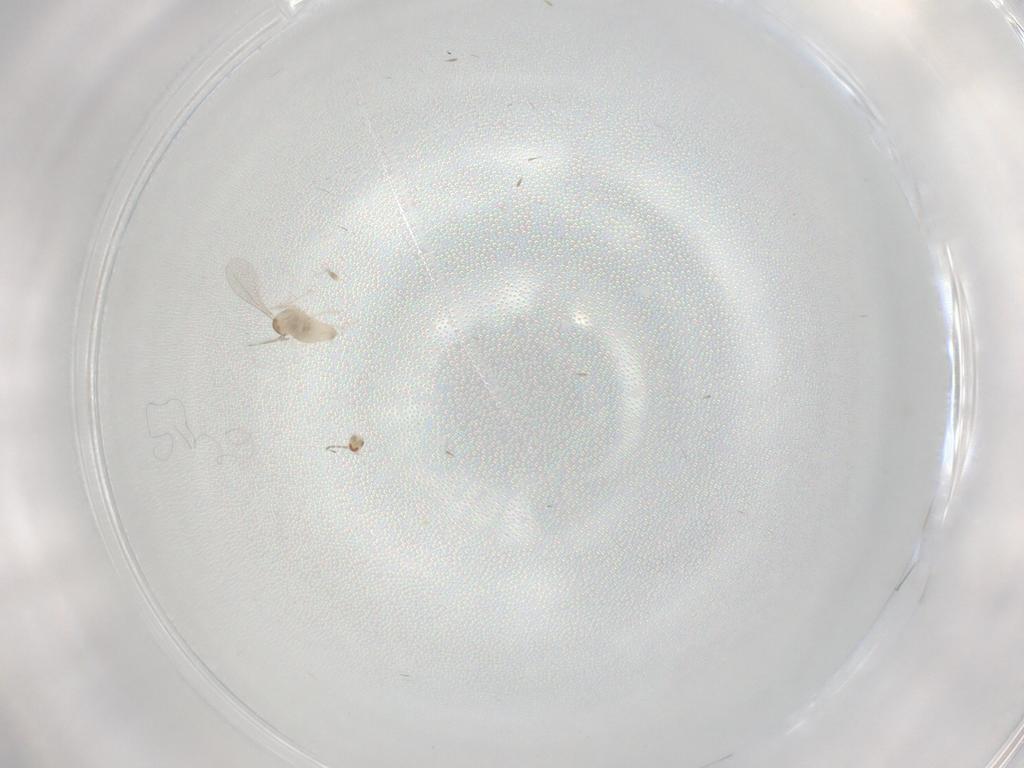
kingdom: Animalia
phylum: Arthropoda
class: Insecta
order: Diptera
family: Cecidomyiidae
